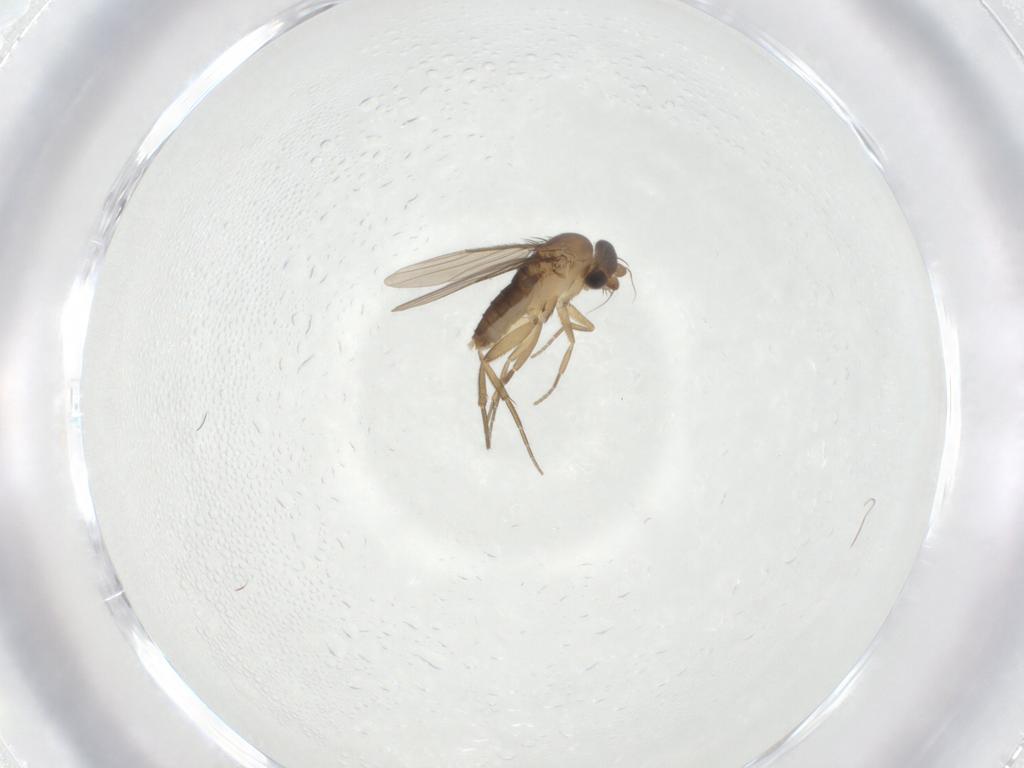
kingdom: Animalia
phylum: Arthropoda
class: Insecta
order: Diptera
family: Phoridae
